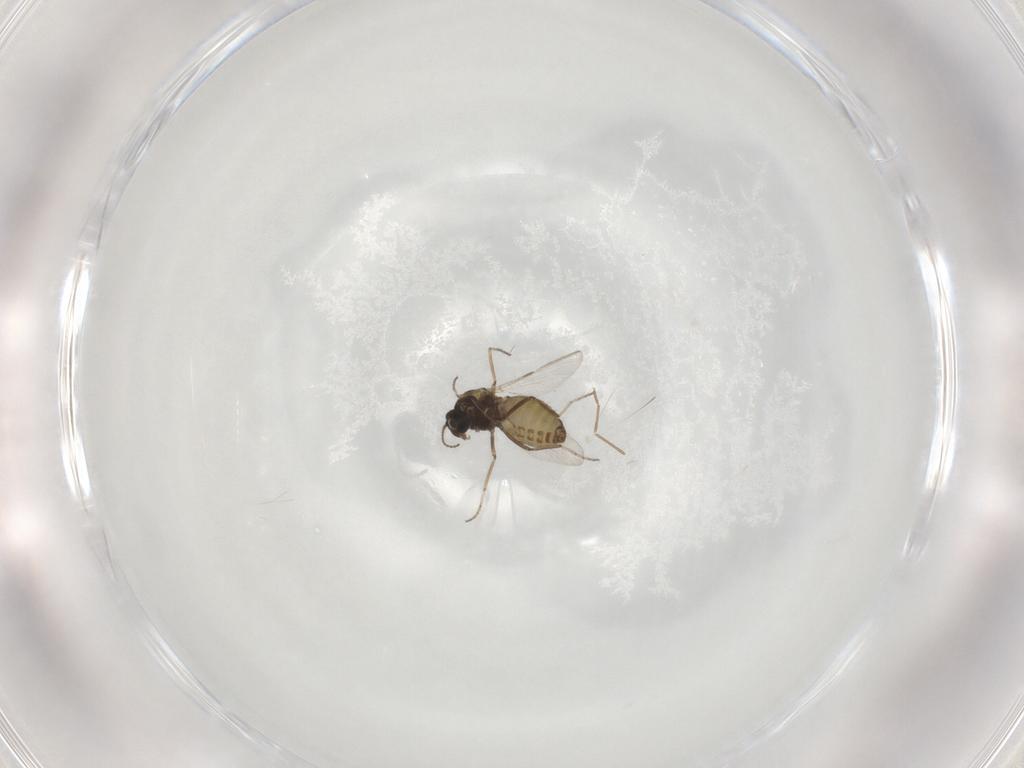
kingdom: Animalia
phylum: Arthropoda
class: Insecta
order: Diptera
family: Ceratopogonidae
